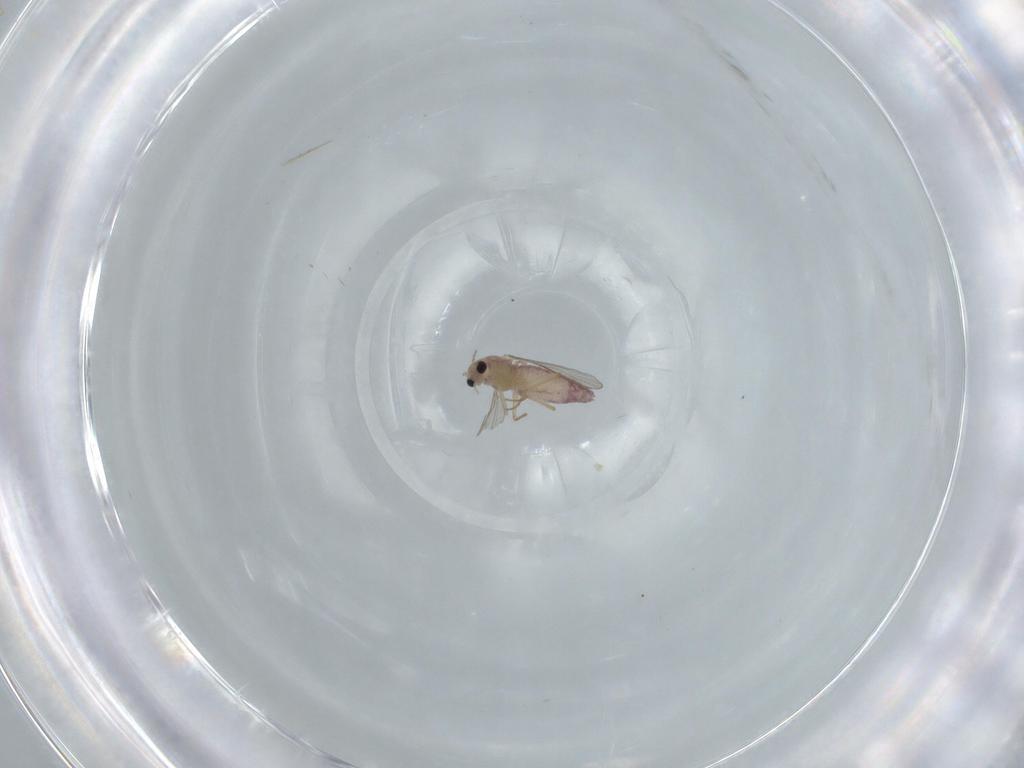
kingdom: Animalia
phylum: Arthropoda
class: Insecta
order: Diptera
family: Chironomidae
